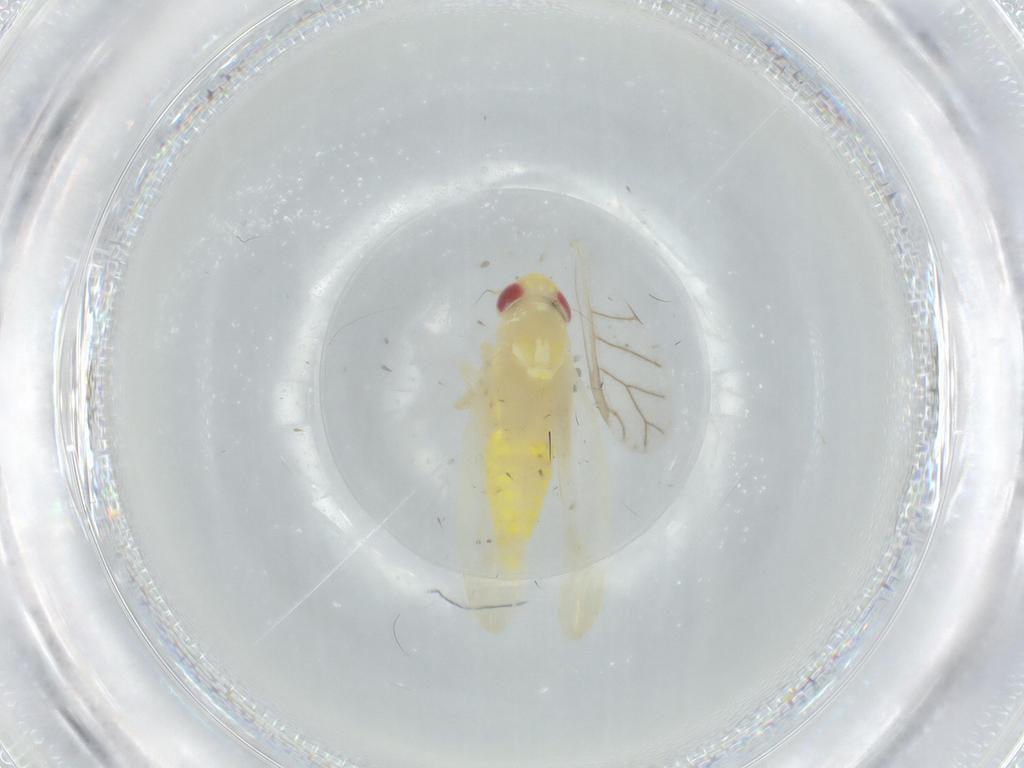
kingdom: Animalia
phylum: Arthropoda
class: Insecta
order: Hemiptera
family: Cicadellidae
